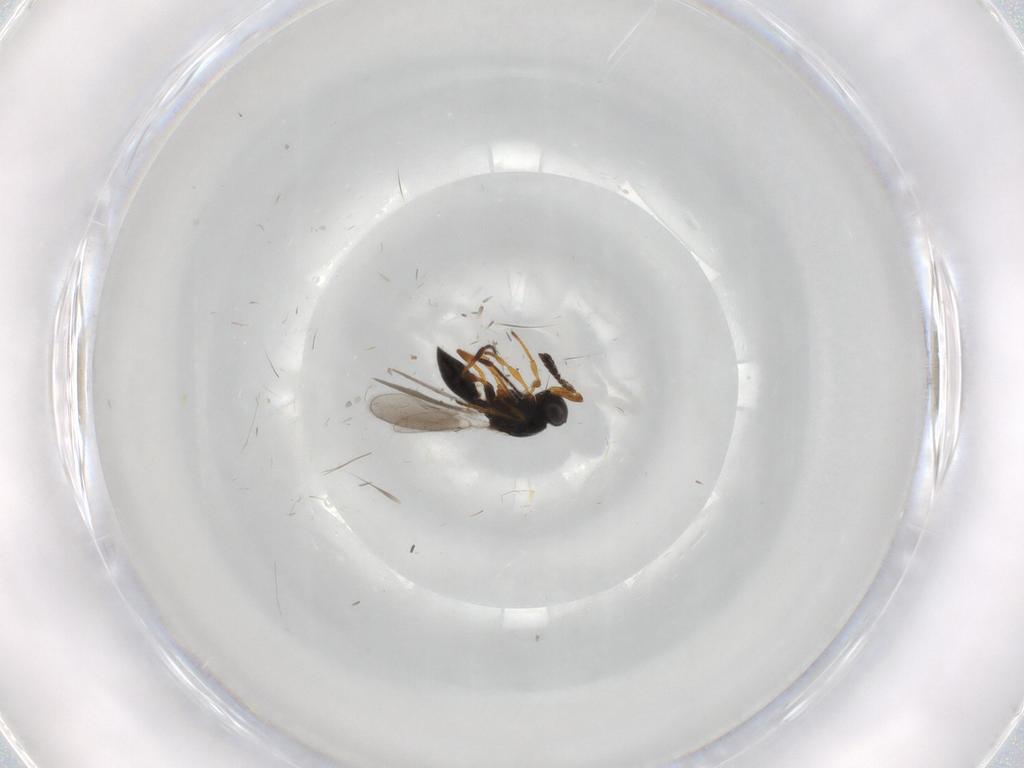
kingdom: Animalia
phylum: Arthropoda
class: Insecta
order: Hymenoptera
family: Platygastridae
